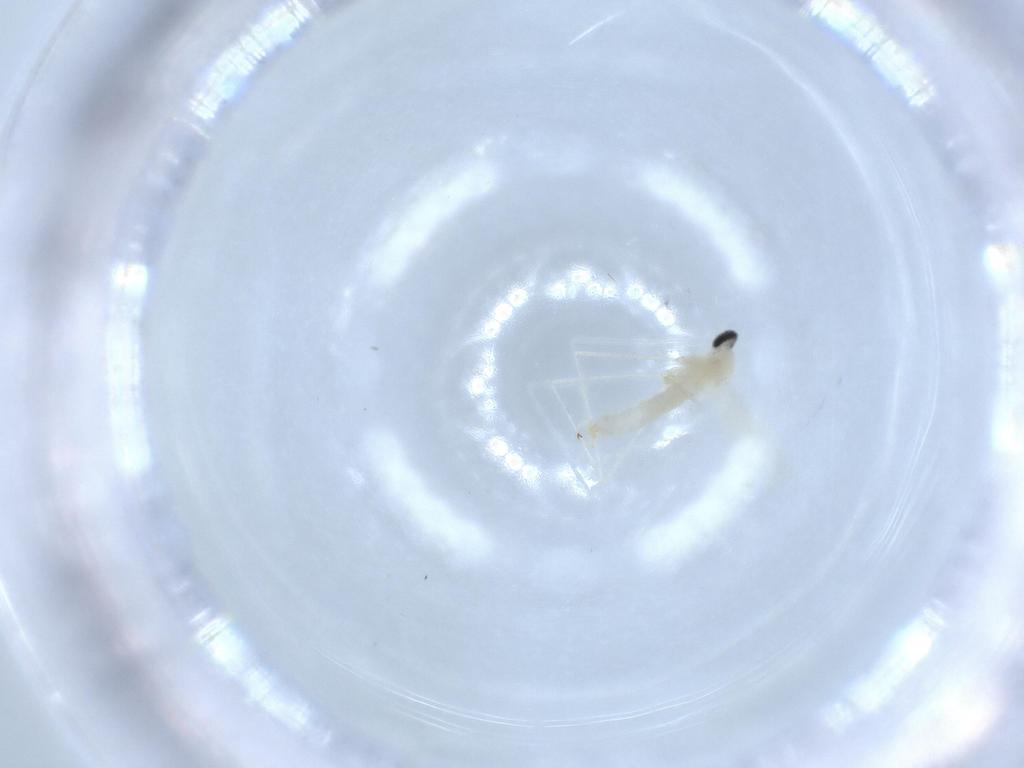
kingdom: Animalia
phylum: Arthropoda
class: Insecta
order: Diptera
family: Cecidomyiidae
